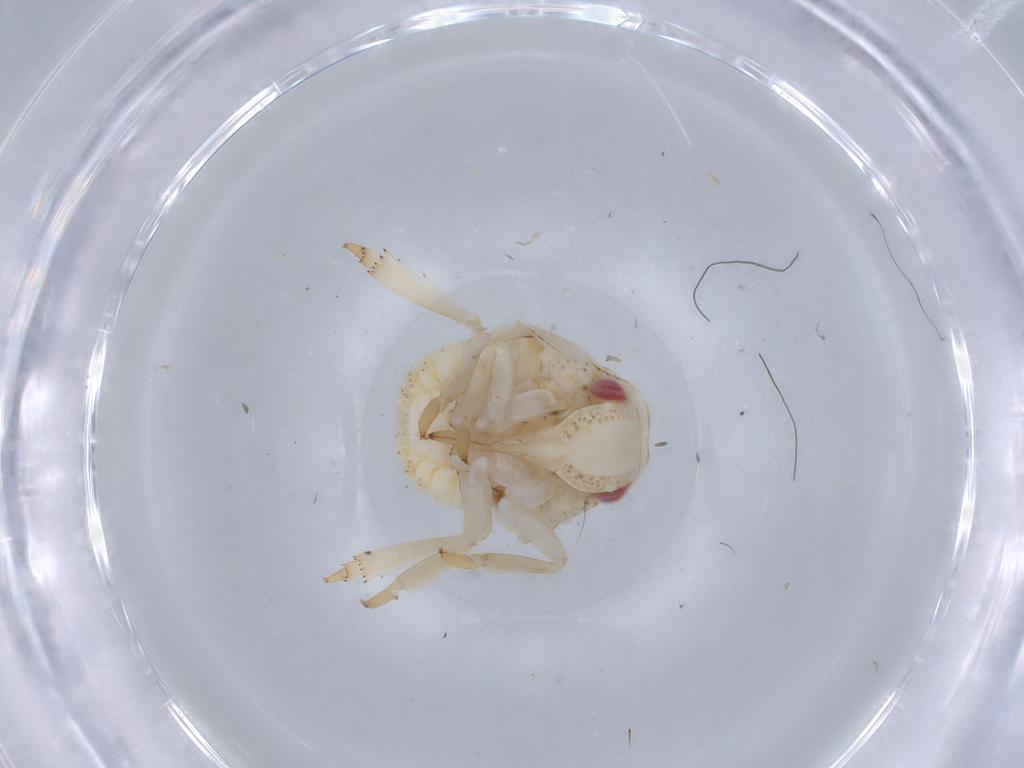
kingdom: Animalia
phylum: Arthropoda
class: Insecta
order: Hemiptera
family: Acanaloniidae
